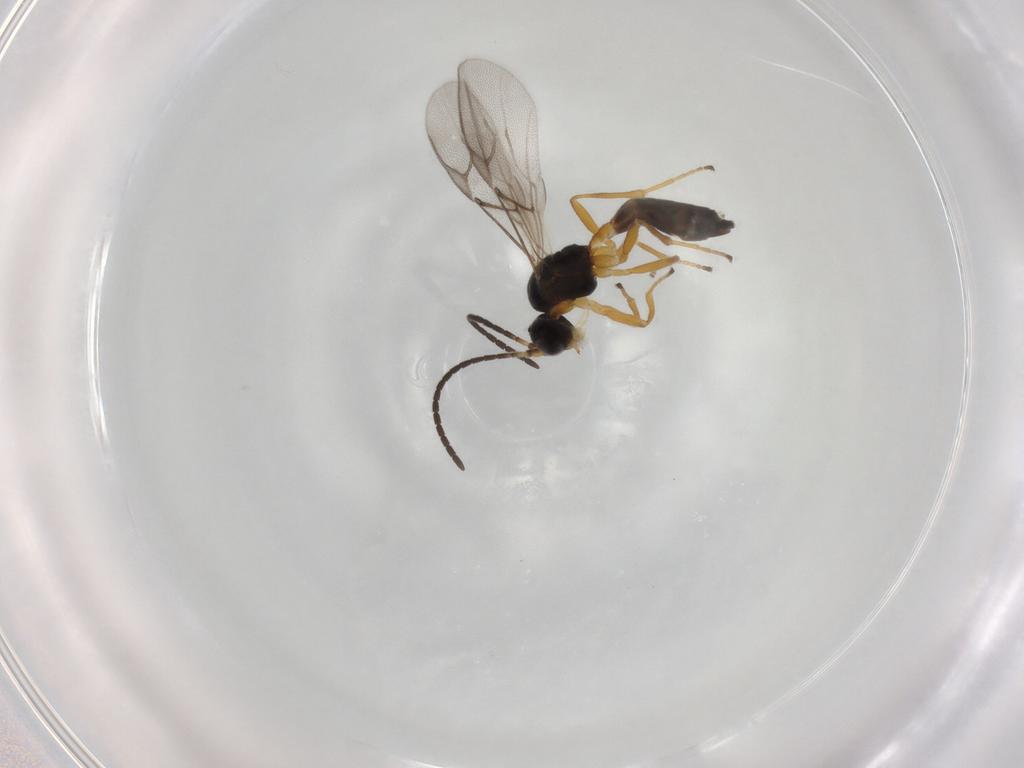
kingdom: Animalia
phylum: Arthropoda
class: Insecta
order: Hymenoptera
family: Braconidae
